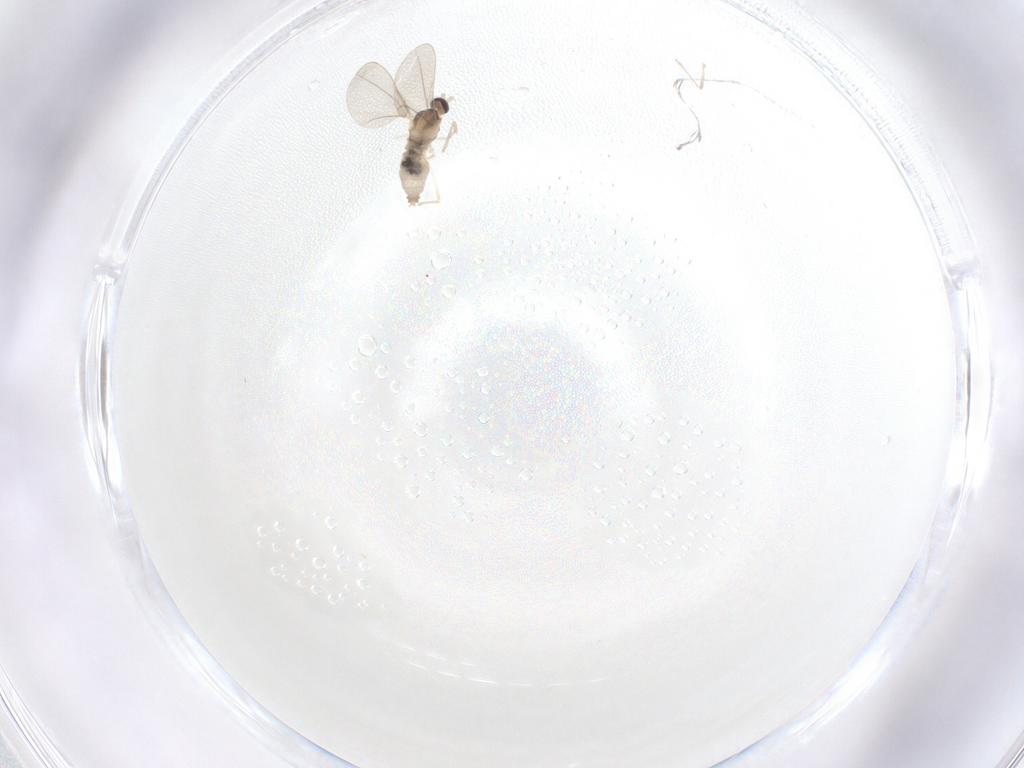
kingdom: Animalia
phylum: Arthropoda
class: Insecta
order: Diptera
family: Cecidomyiidae
